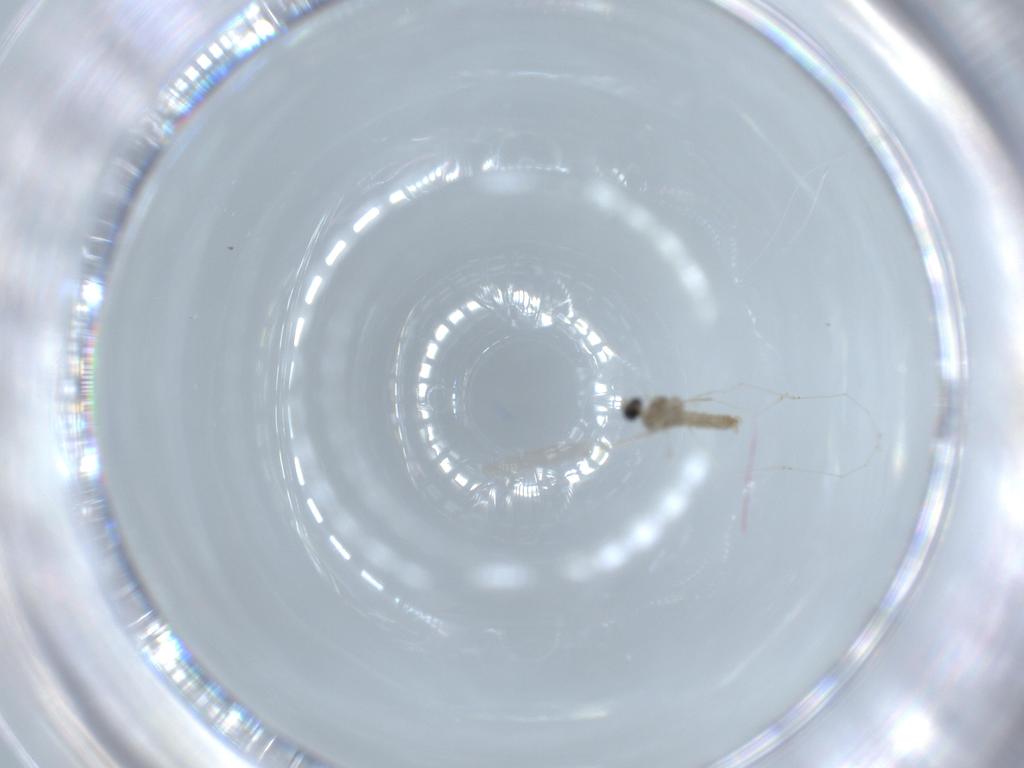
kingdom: Animalia
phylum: Arthropoda
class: Insecta
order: Diptera
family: Cecidomyiidae
